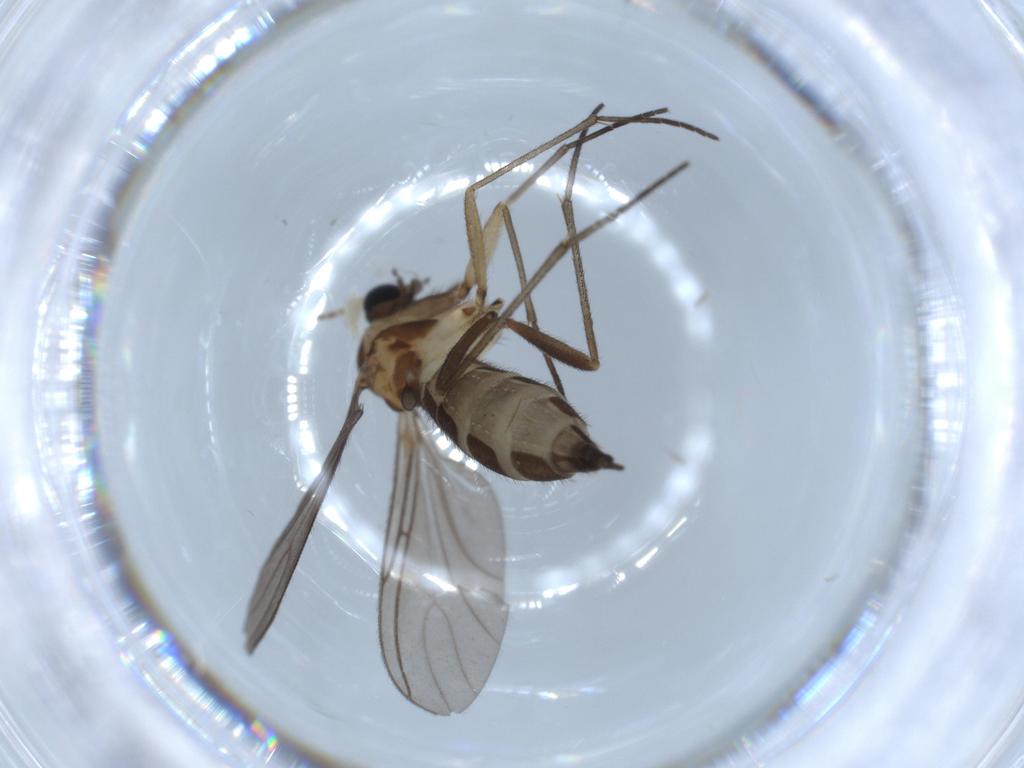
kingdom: Animalia
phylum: Arthropoda
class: Insecta
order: Diptera
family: Sciaridae
